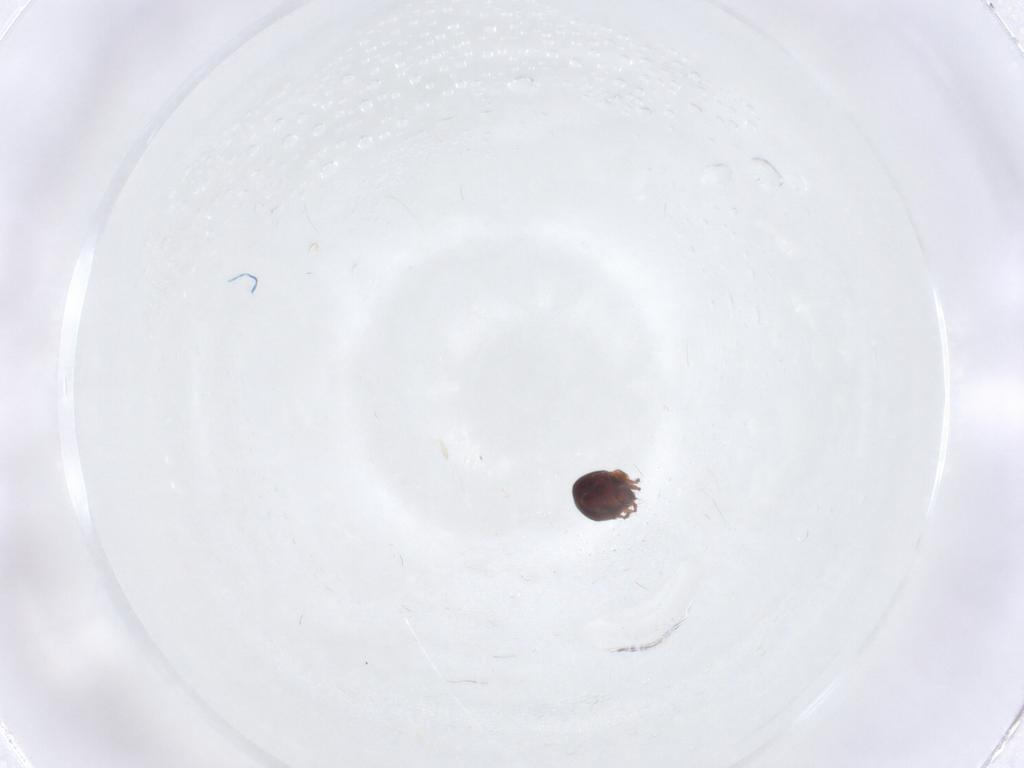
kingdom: Animalia
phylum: Arthropoda
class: Arachnida
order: Sarcoptiformes
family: Ceratozetidae
